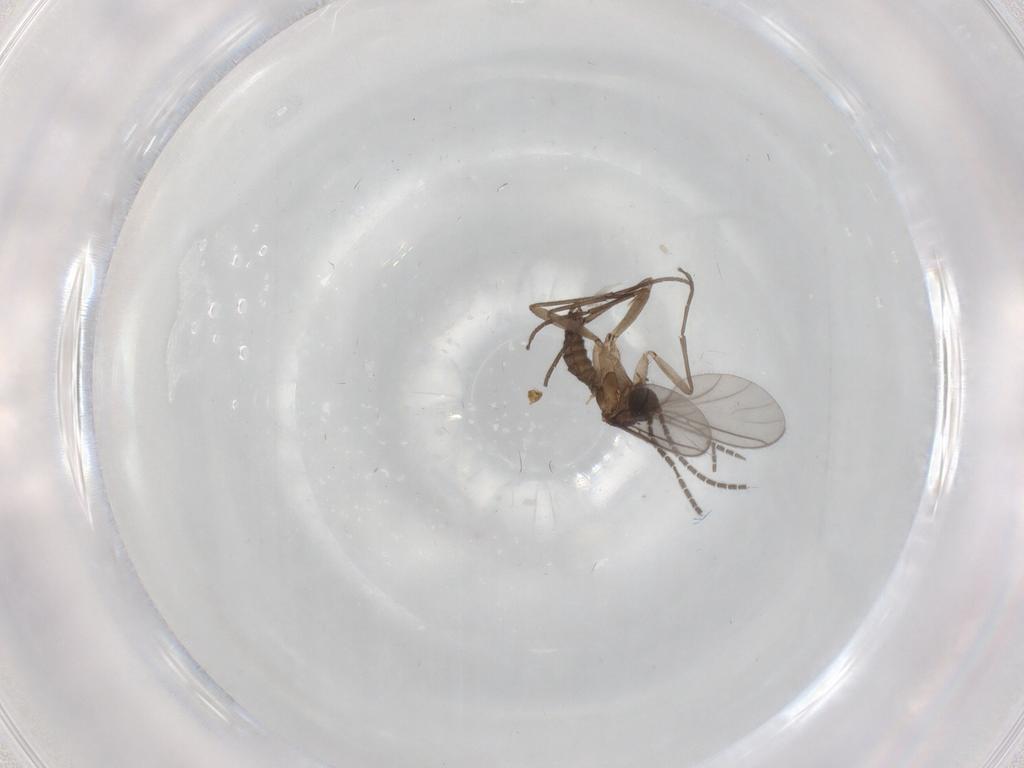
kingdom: Animalia
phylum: Arthropoda
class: Insecta
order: Diptera
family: Sciaridae
